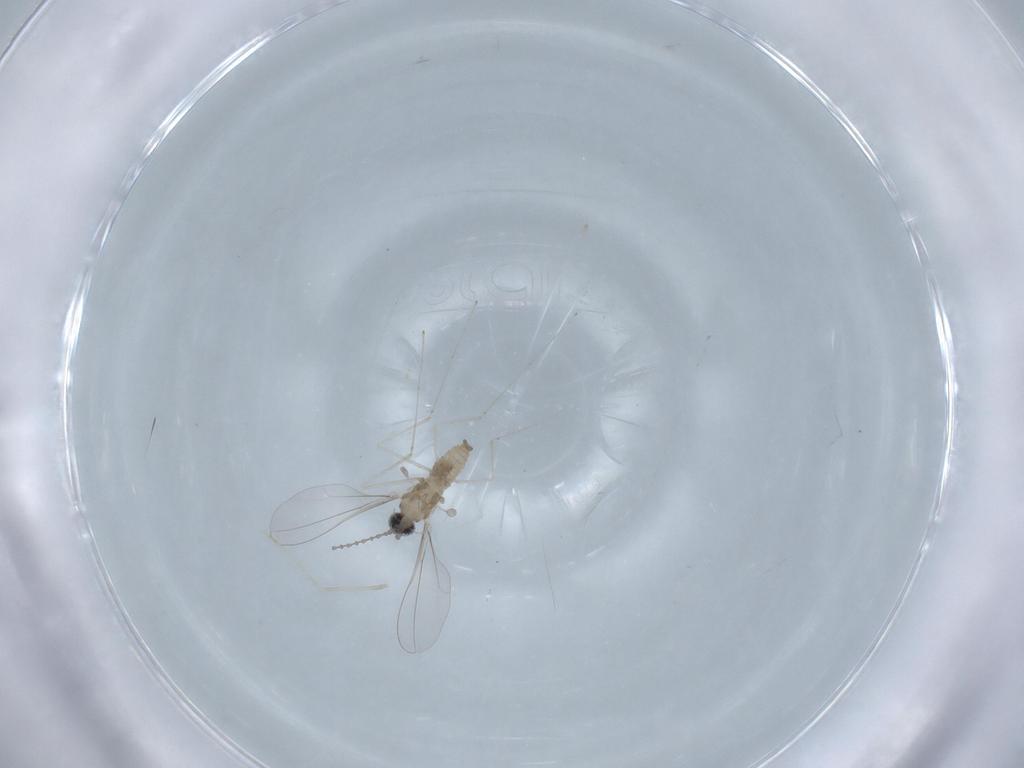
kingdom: Animalia
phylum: Arthropoda
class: Insecta
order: Diptera
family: Cecidomyiidae
